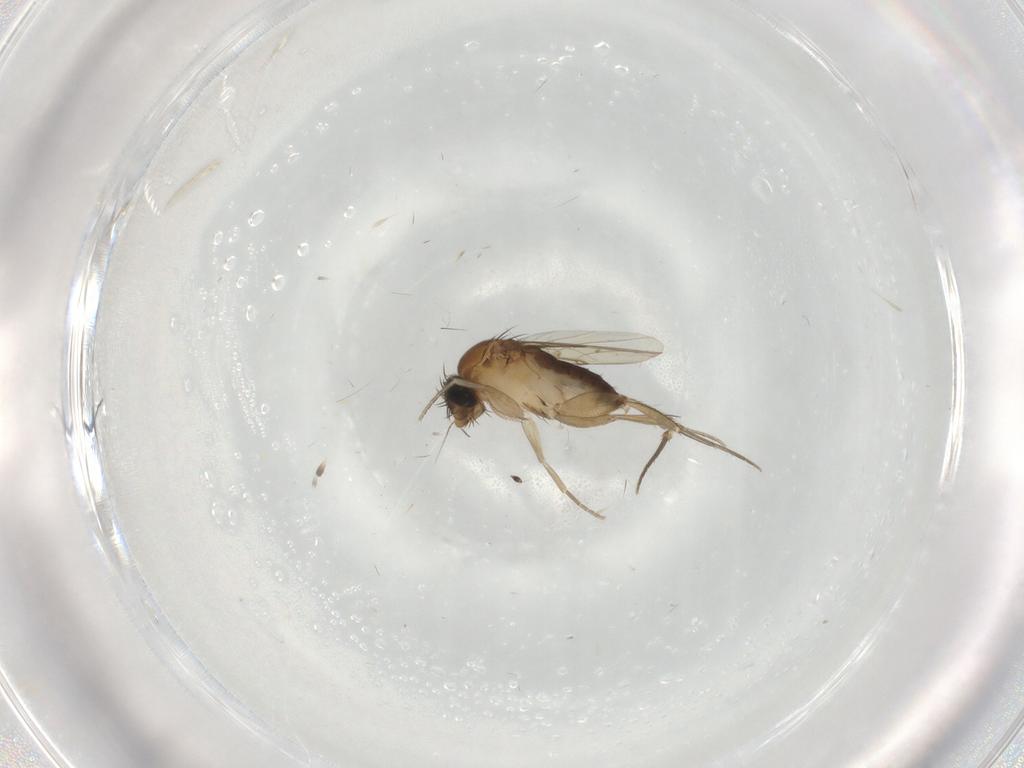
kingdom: Animalia
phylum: Arthropoda
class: Insecta
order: Diptera
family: Phoridae
